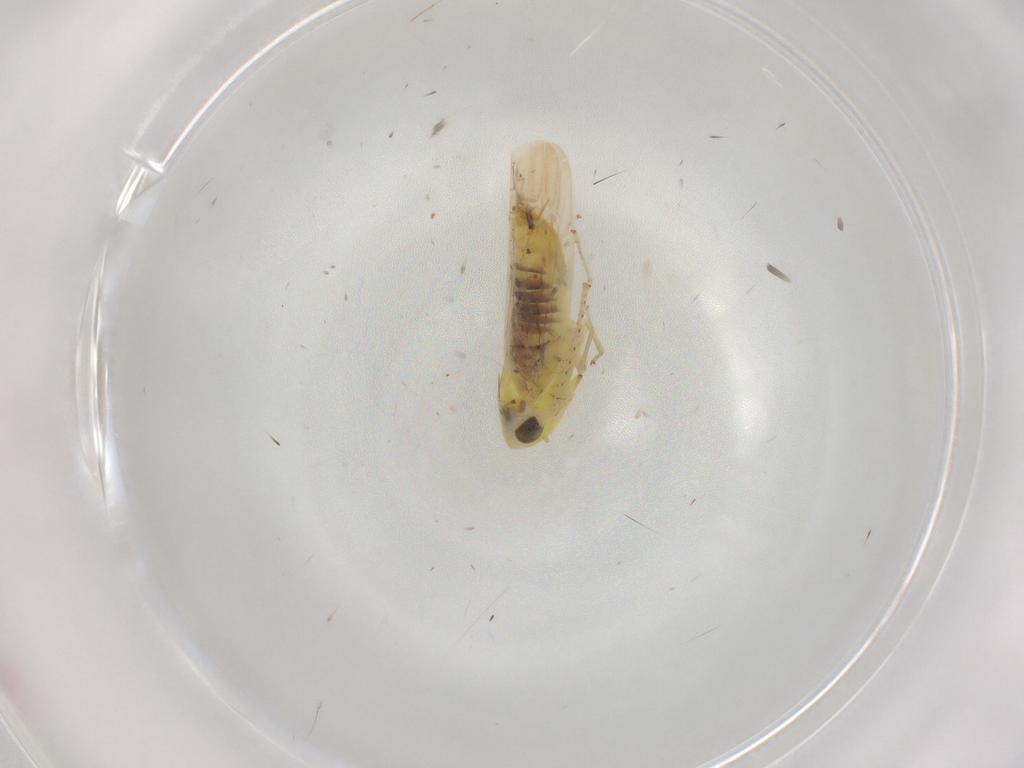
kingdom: Animalia
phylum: Arthropoda
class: Insecta
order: Hemiptera
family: Cicadellidae
